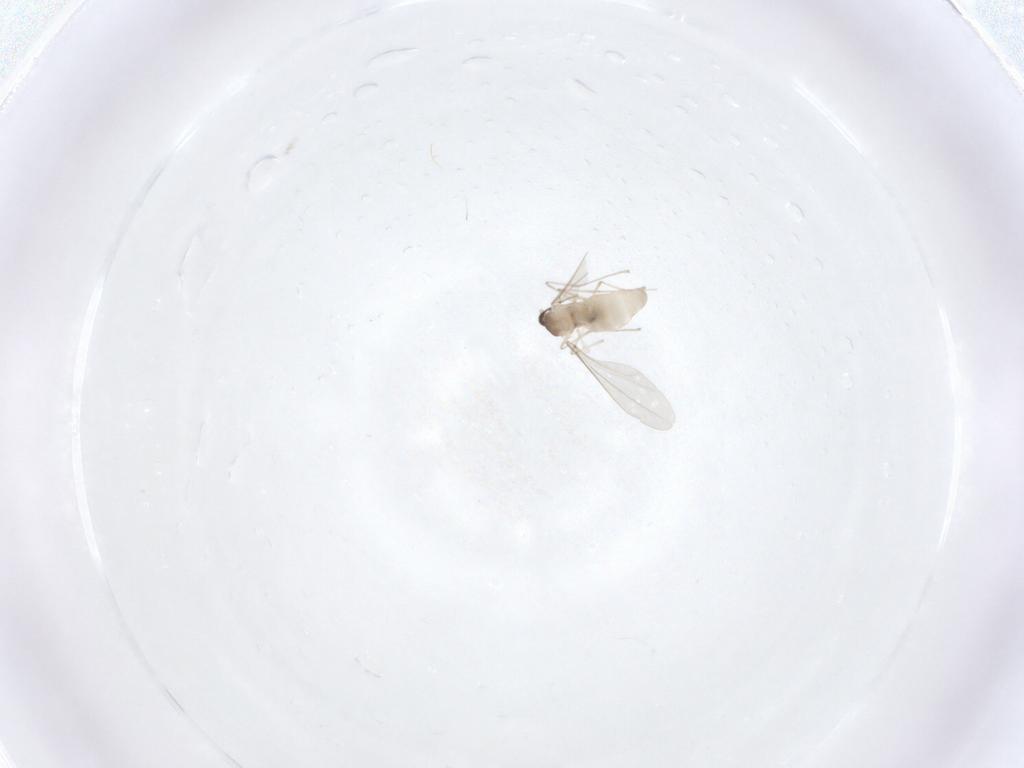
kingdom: Animalia
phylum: Arthropoda
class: Insecta
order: Diptera
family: Cecidomyiidae
